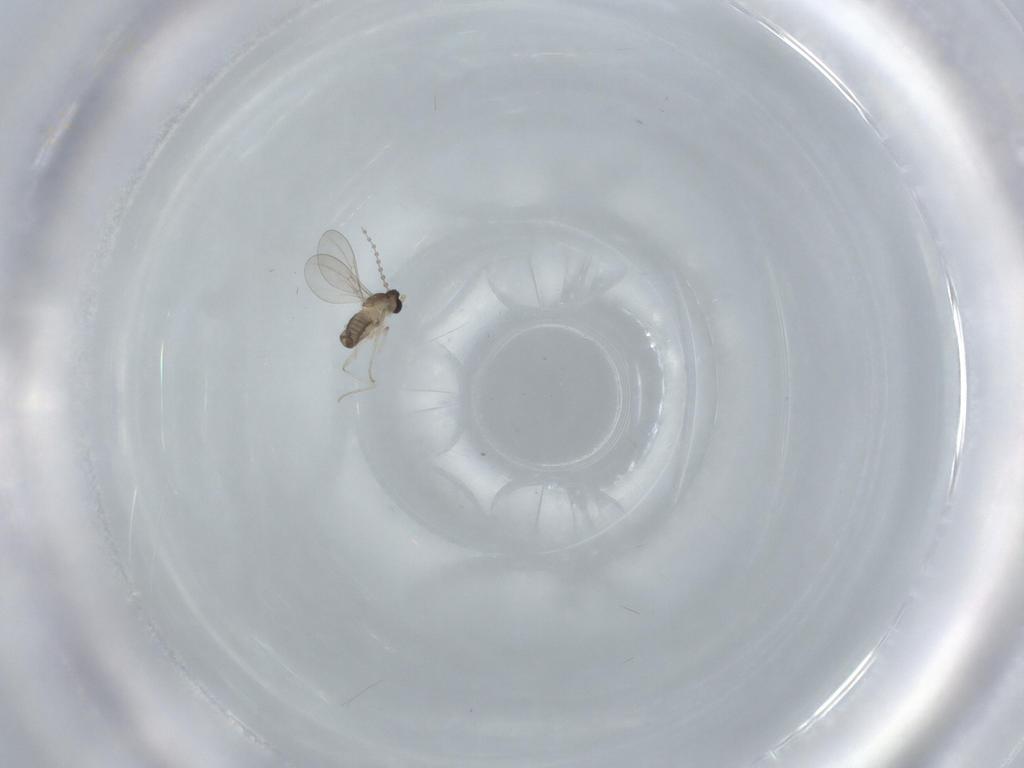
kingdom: Animalia
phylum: Arthropoda
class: Insecta
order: Diptera
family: Cecidomyiidae
